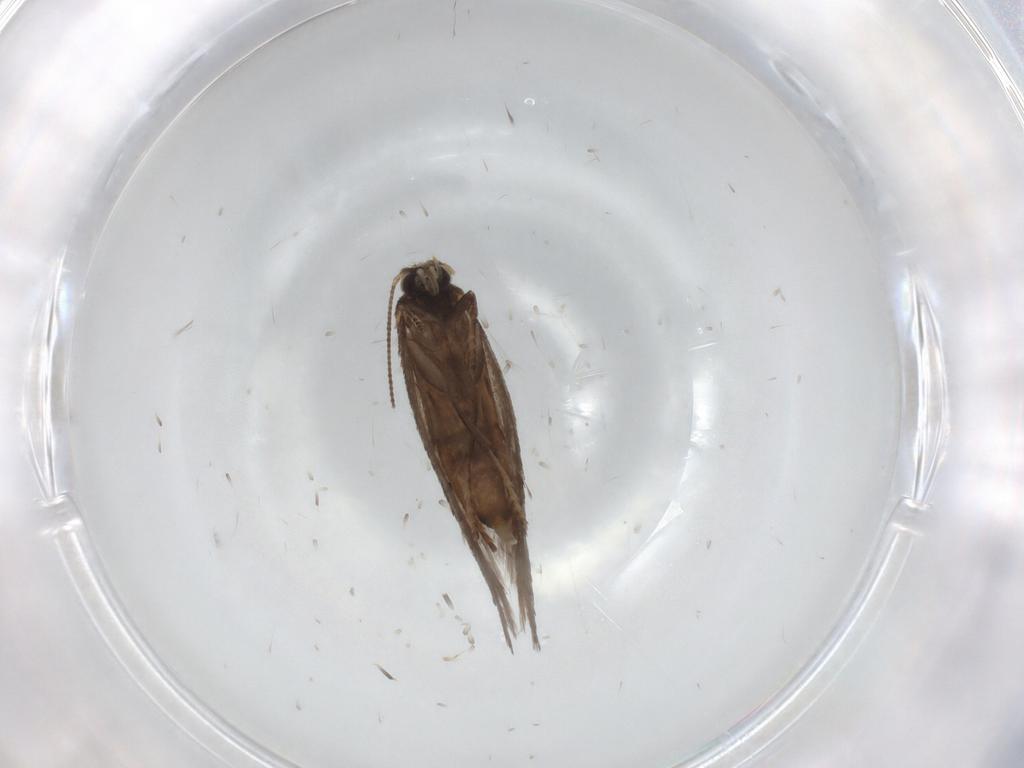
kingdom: Animalia
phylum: Arthropoda
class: Insecta
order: Lepidoptera
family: Nepticulidae
